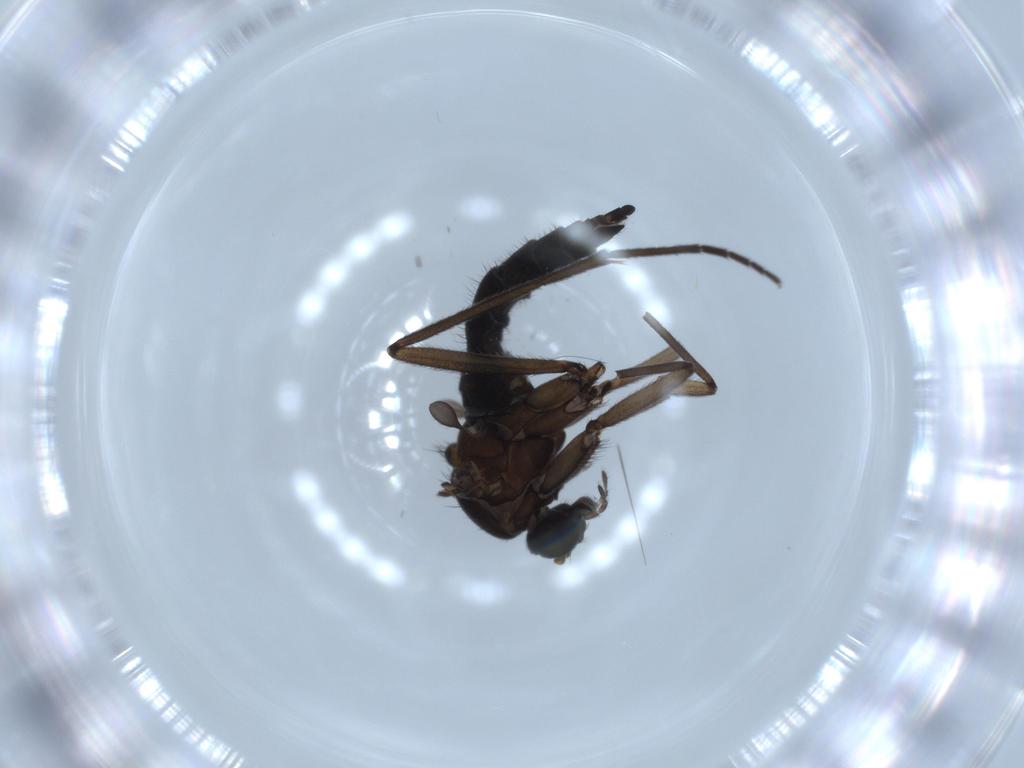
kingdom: Animalia
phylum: Arthropoda
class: Insecta
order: Diptera
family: Sciaridae
